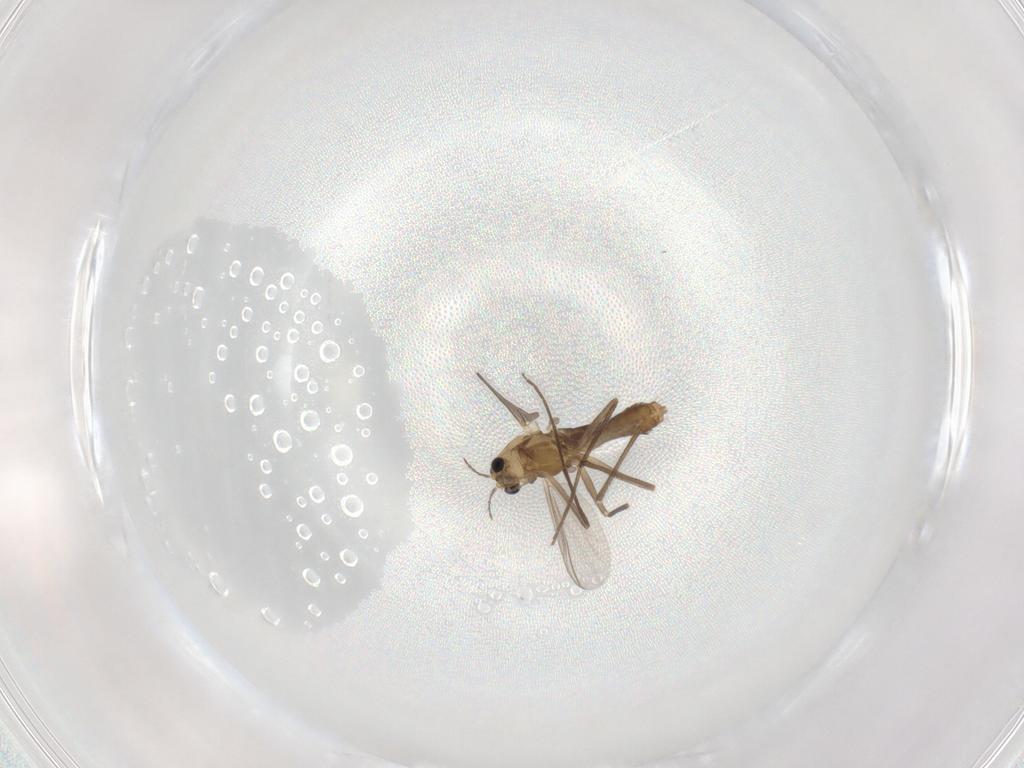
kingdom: Animalia
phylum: Arthropoda
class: Insecta
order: Diptera
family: Chironomidae
